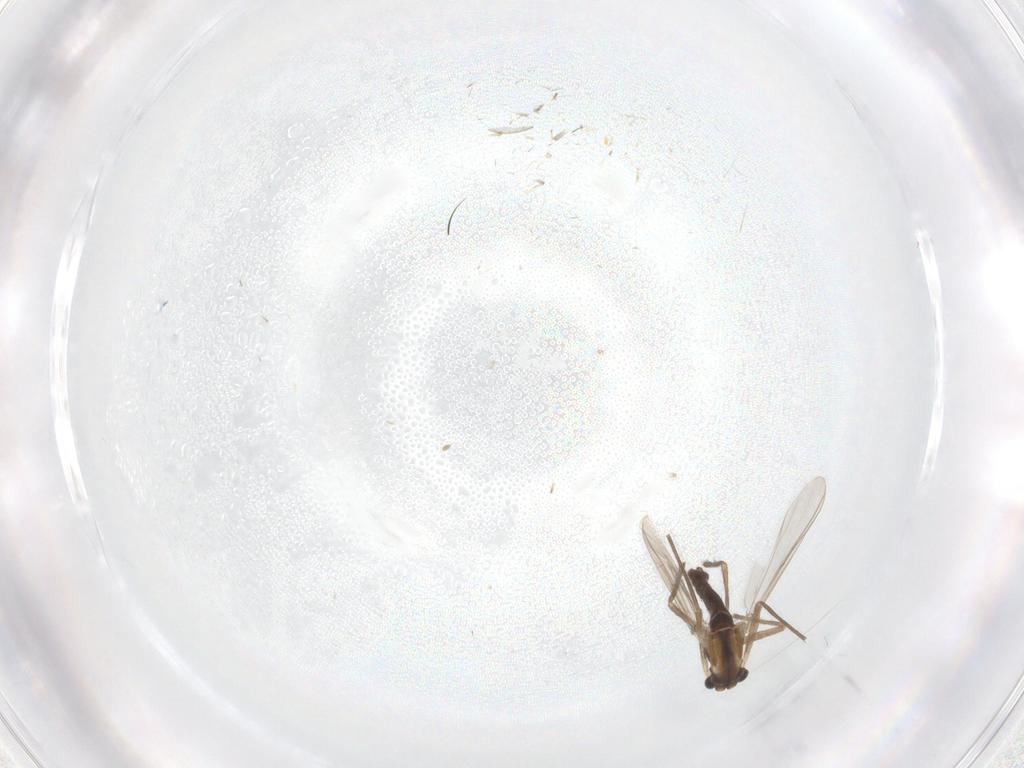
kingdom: Animalia
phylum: Arthropoda
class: Insecta
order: Diptera
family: Chironomidae
